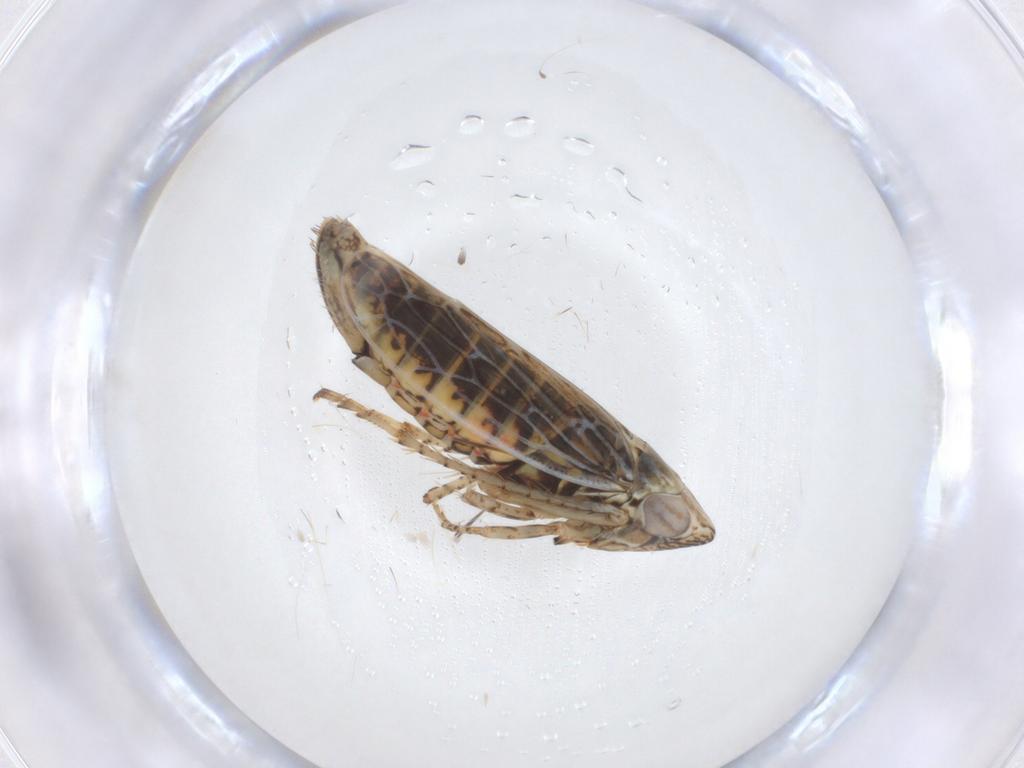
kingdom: Animalia
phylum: Arthropoda
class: Insecta
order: Hemiptera
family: Cicadellidae
